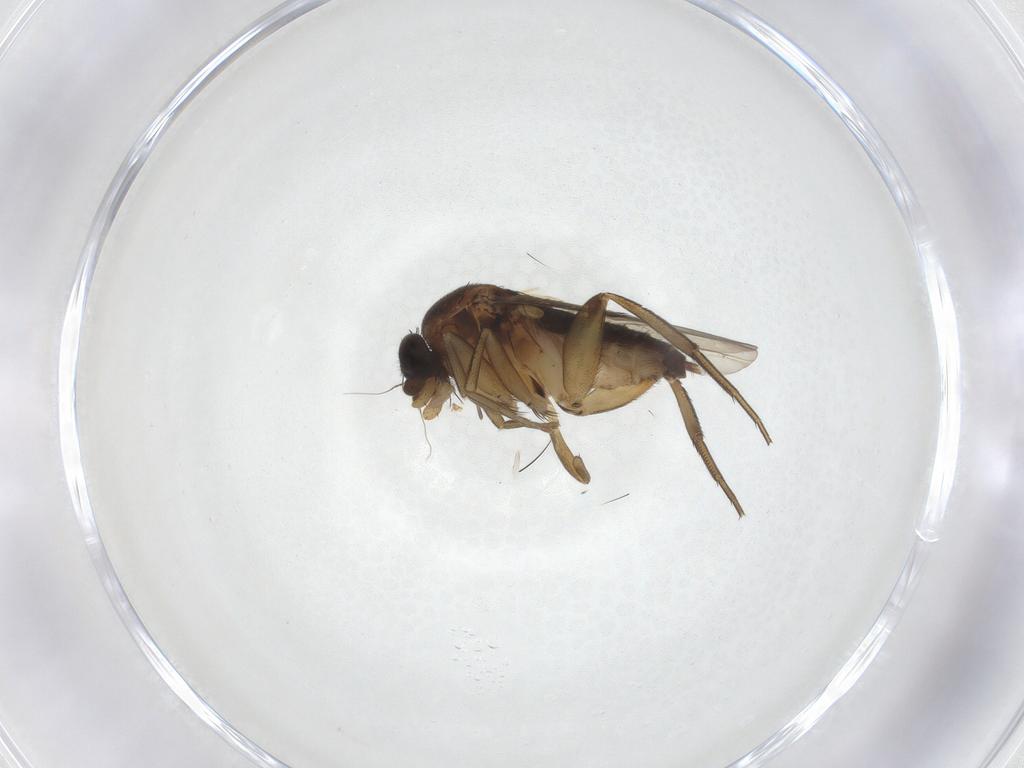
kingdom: Animalia
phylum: Arthropoda
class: Insecta
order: Diptera
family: Phoridae
